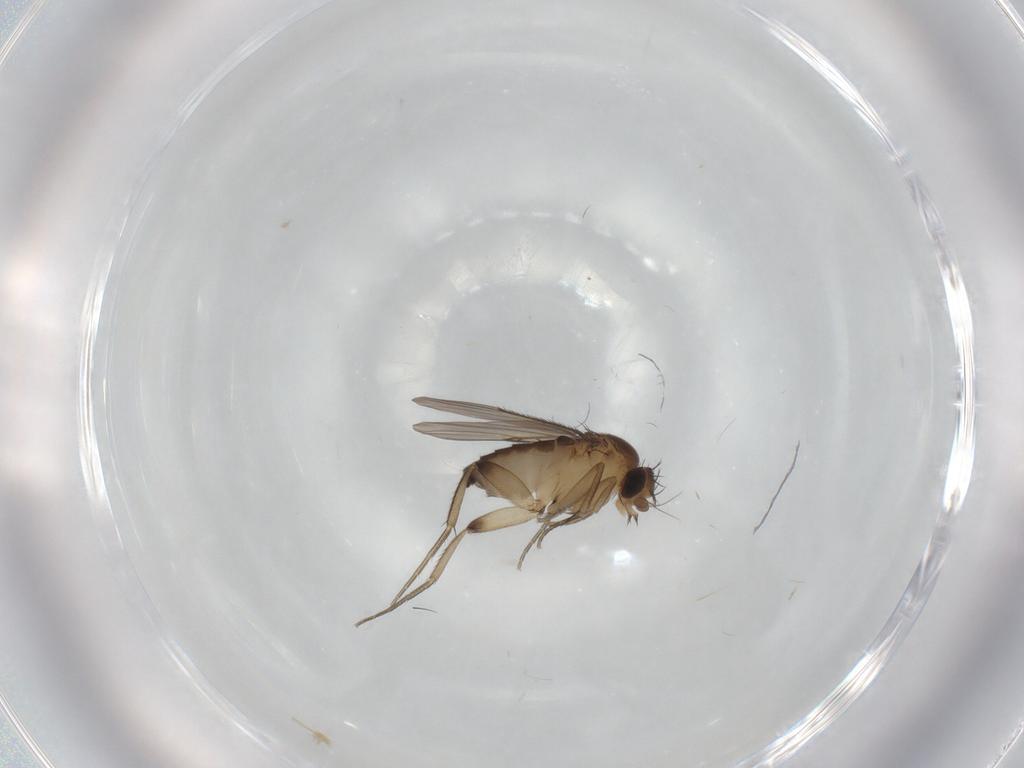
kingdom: Animalia
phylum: Arthropoda
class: Insecta
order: Diptera
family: Phoridae
